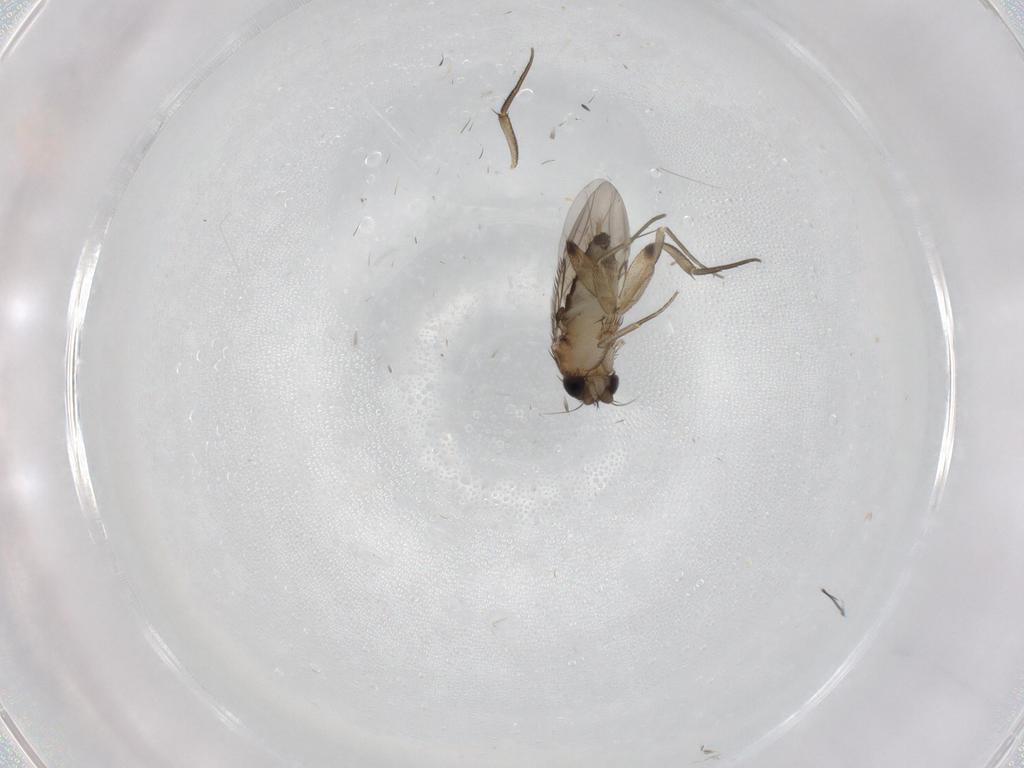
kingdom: Animalia
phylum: Arthropoda
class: Insecta
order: Diptera
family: Phoridae
